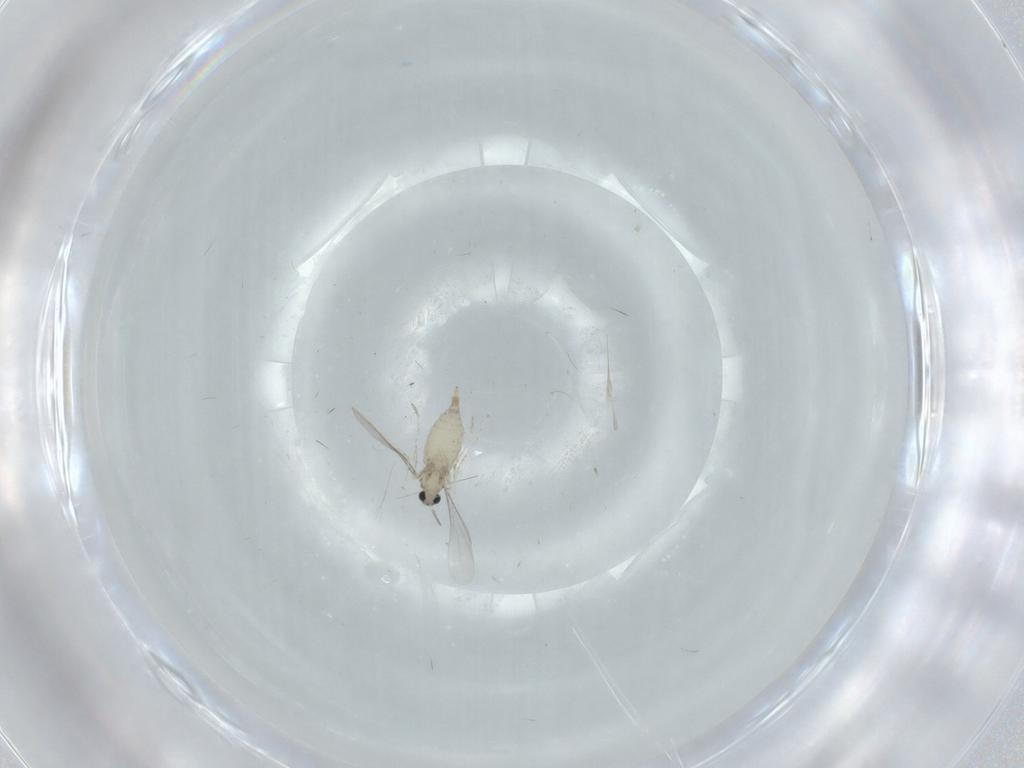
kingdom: Animalia
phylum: Arthropoda
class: Insecta
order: Diptera
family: Cecidomyiidae
